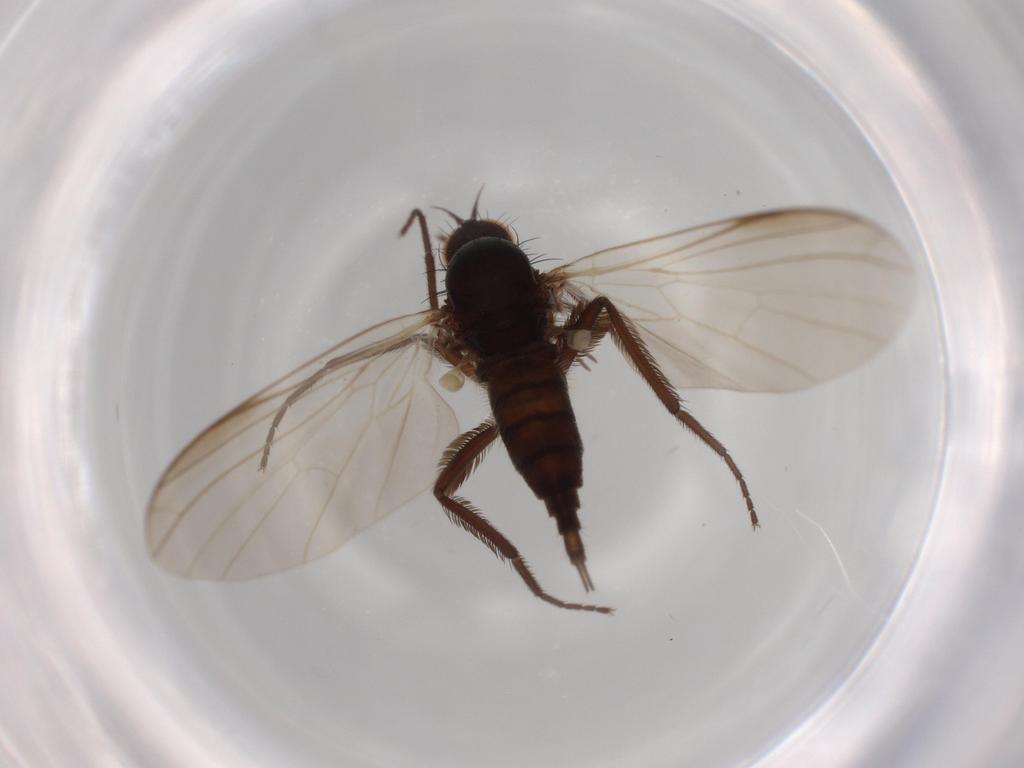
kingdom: Animalia
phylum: Arthropoda
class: Insecta
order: Diptera
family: Empididae
